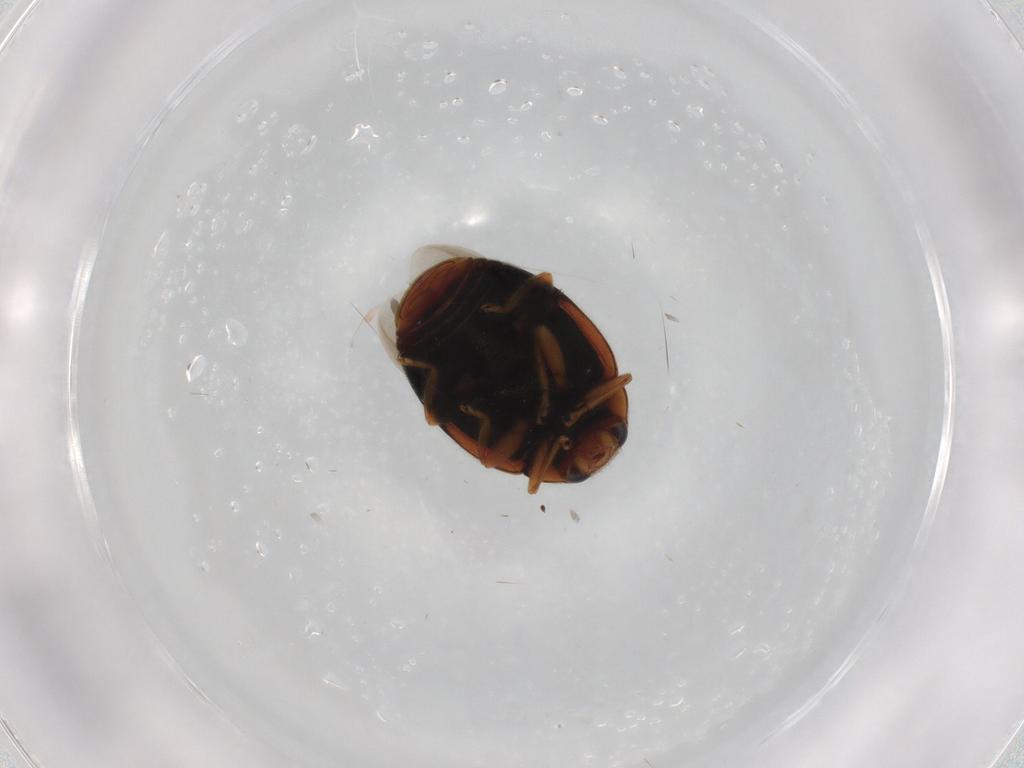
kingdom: Animalia
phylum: Arthropoda
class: Insecta
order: Coleoptera
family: Coccinellidae
